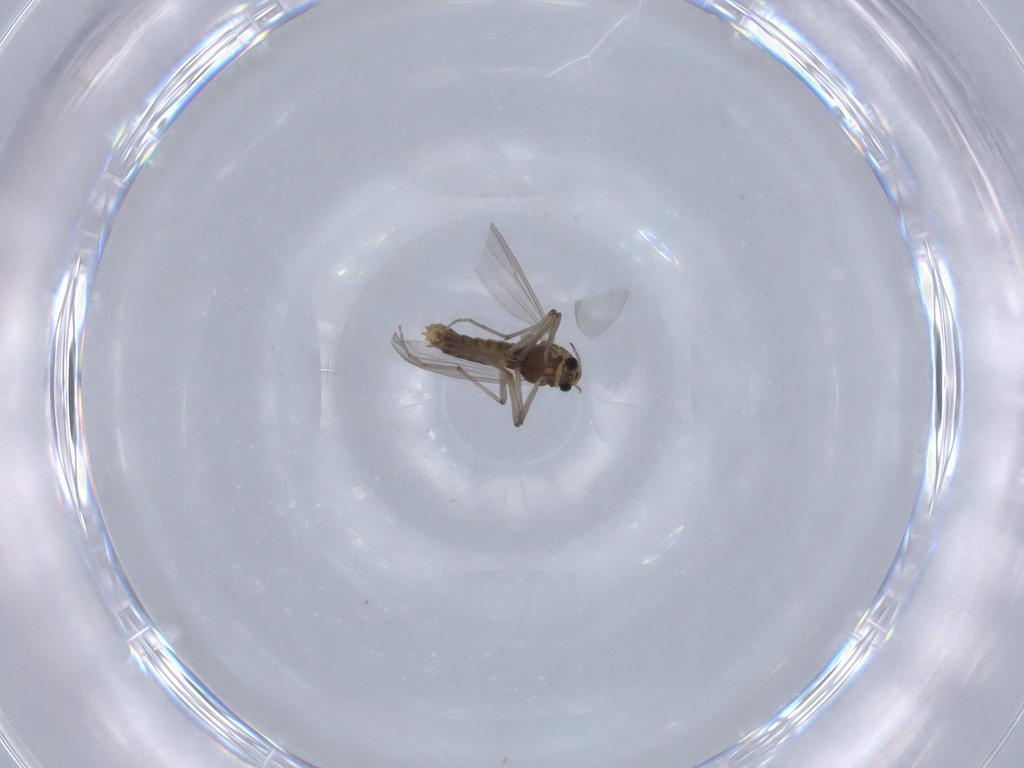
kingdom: Animalia
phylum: Arthropoda
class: Insecta
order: Diptera
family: Chironomidae
